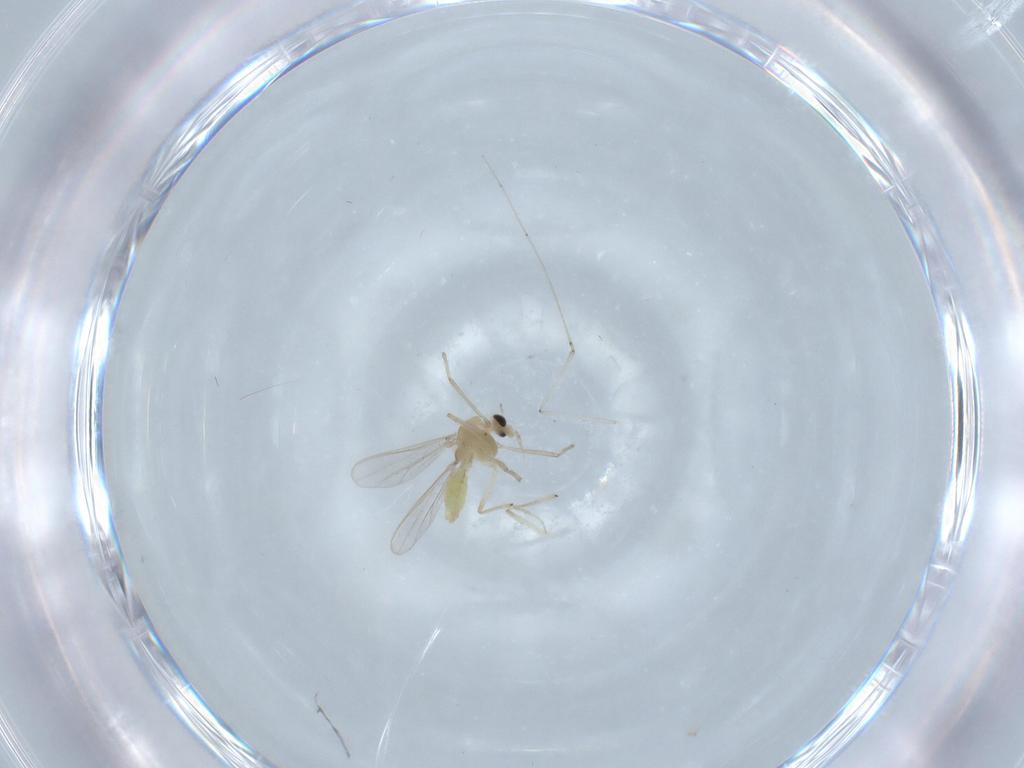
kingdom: Animalia
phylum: Arthropoda
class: Insecta
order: Diptera
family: Chironomidae
